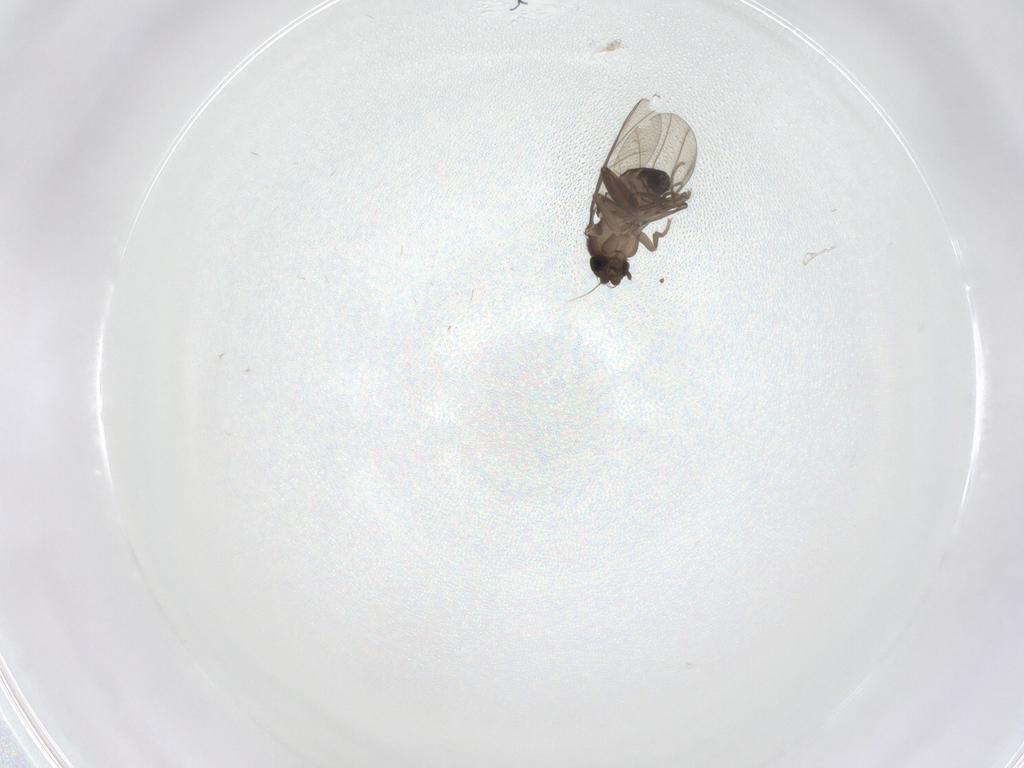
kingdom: Animalia
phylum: Arthropoda
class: Insecta
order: Diptera
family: Phoridae
